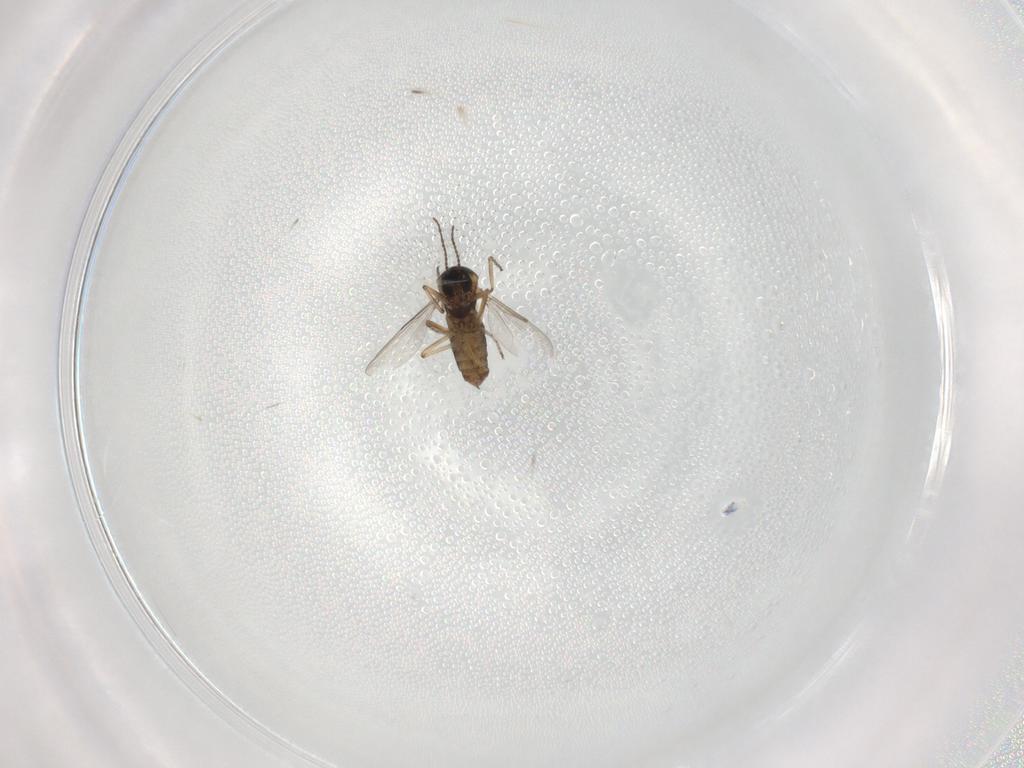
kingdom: Animalia
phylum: Arthropoda
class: Insecta
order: Diptera
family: Ceratopogonidae
